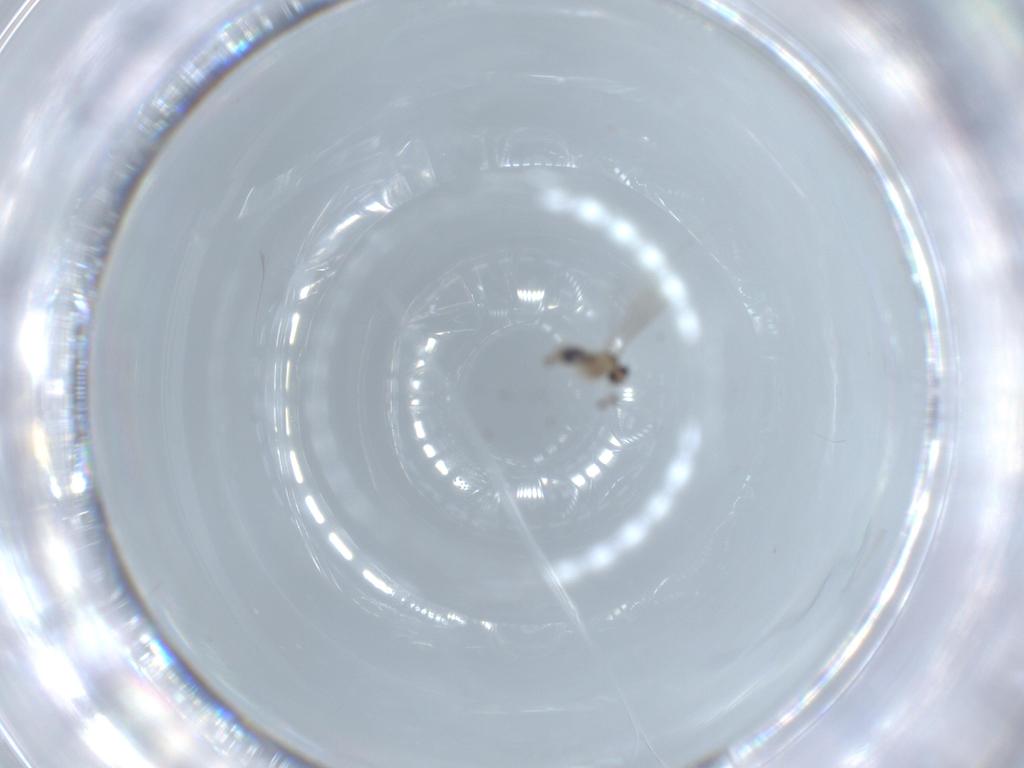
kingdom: Animalia
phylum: Arthropoda
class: Insecta
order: Diptera
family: Cecidomyiidae
